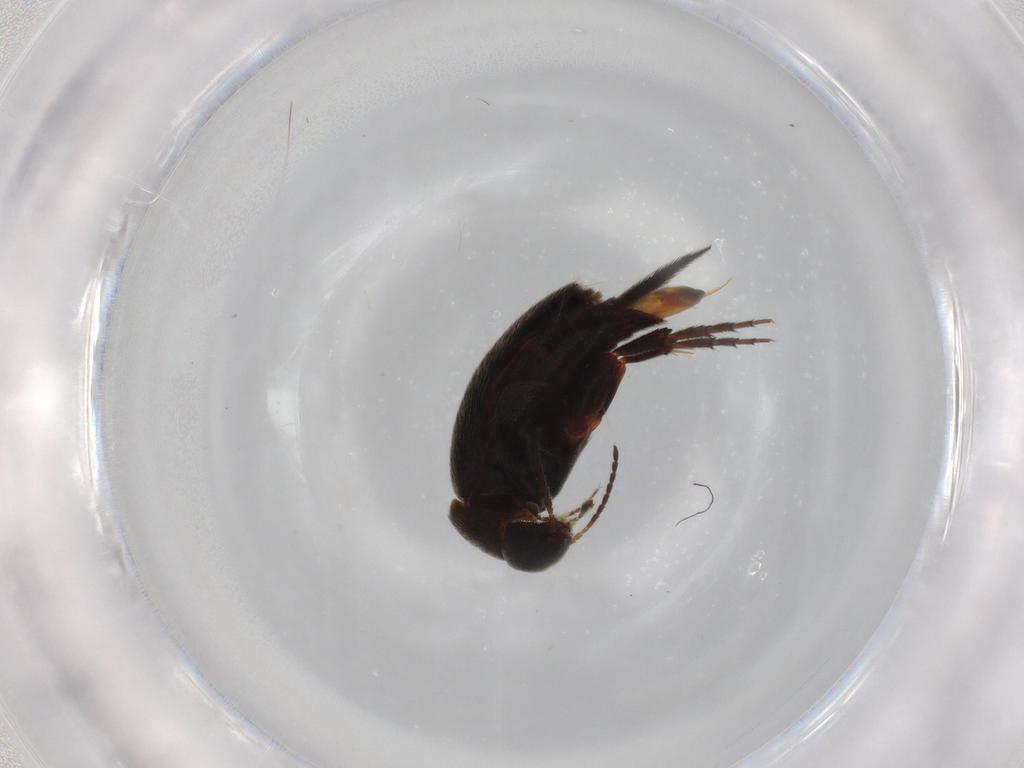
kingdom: Animalia
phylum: Arthropoda
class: Insecta
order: Coleoptera
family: Mordellidae
